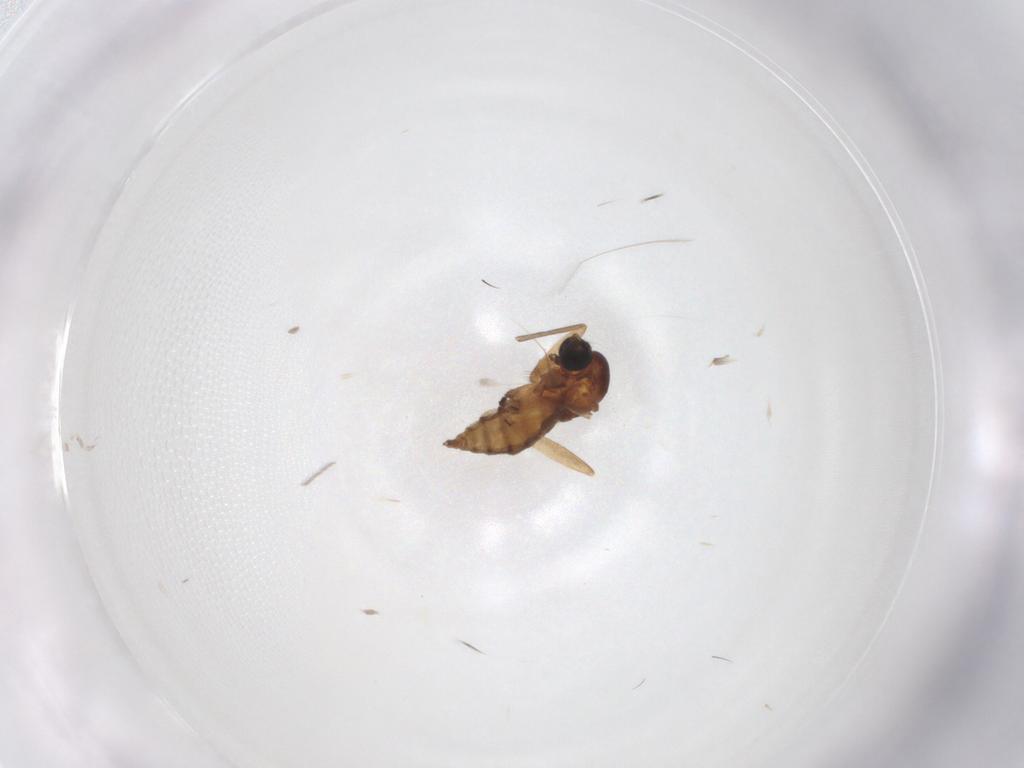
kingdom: Animalia
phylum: Arthropoda
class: Insecta
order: Diptera
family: Sciaridae
